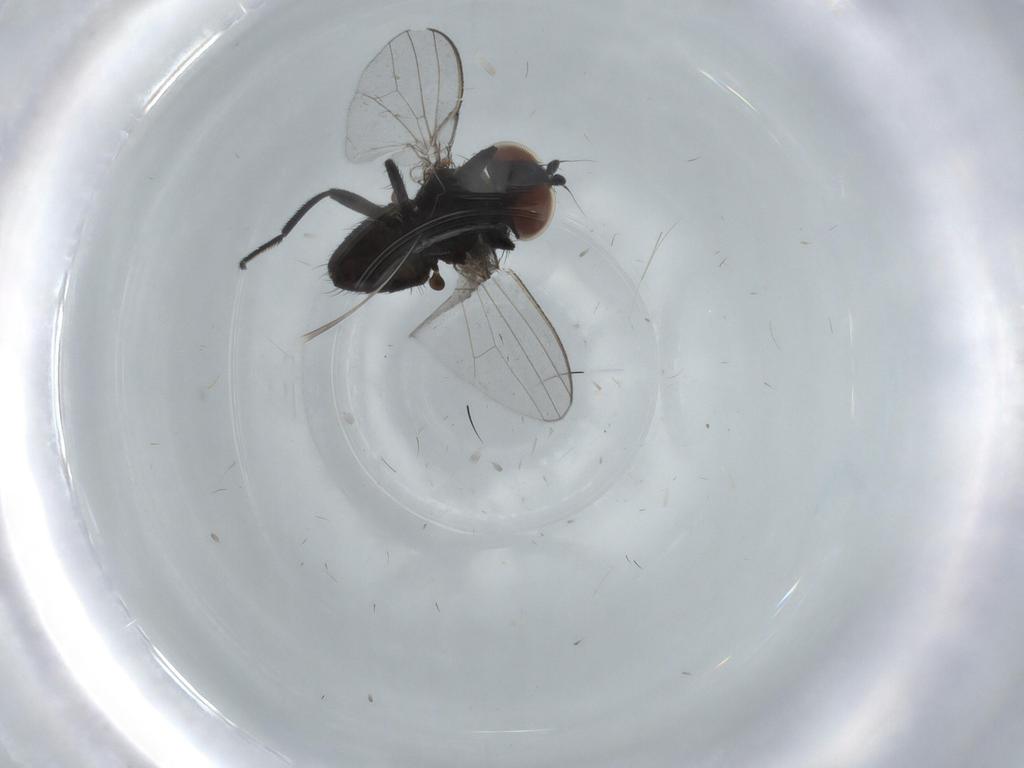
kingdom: Animalia
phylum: Arthropoda
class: Insecta
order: Diptera
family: Milichiidae
